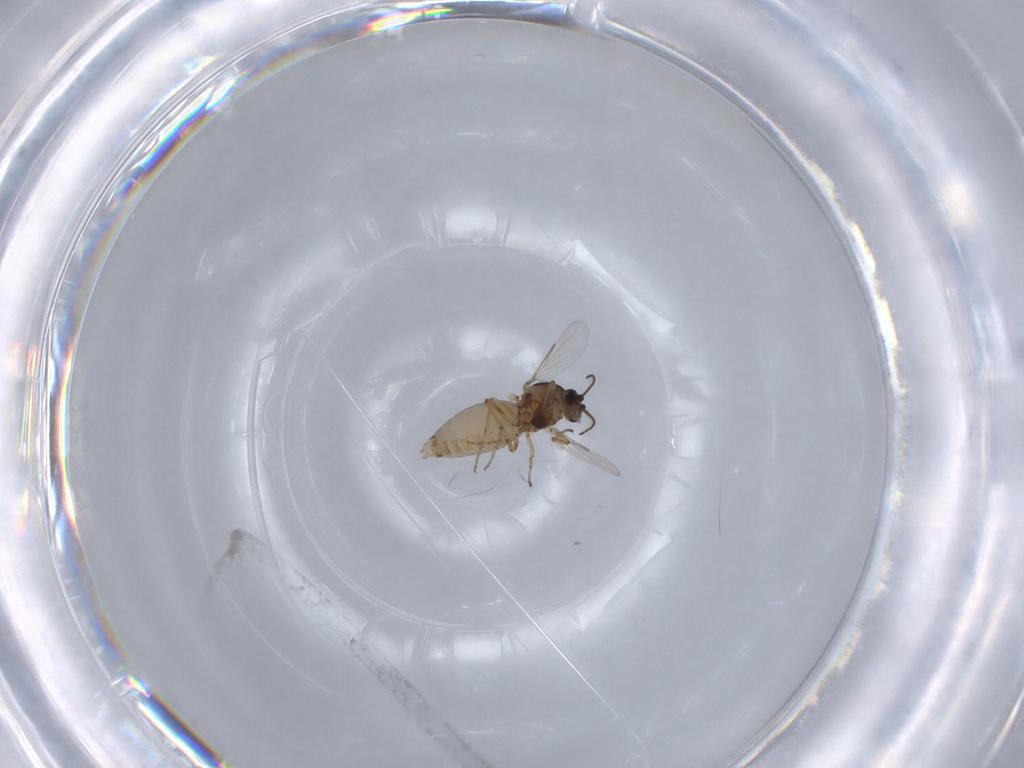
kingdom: Animalia
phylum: Arthropoda
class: Insecta
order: Diptera
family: Ceratopogonidae
